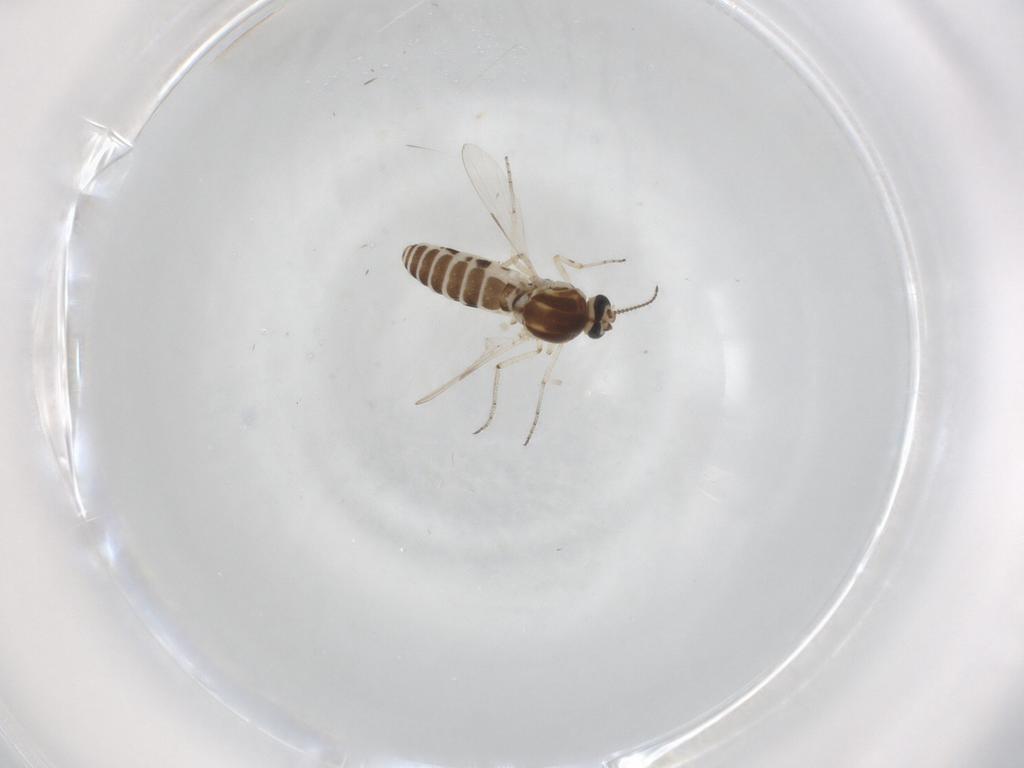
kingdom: Animalia
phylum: Arthropoda
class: Insecta
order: Diptera
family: Ceratopogonidae
